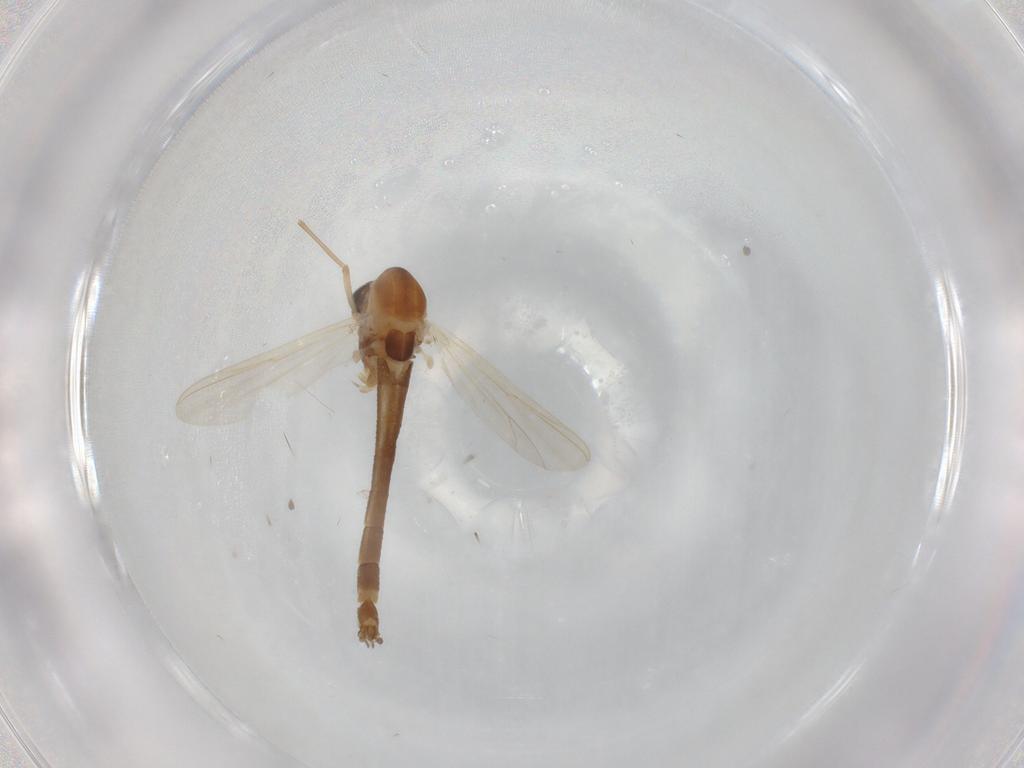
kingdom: Animalia
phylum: Arthropoda
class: Insecta
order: Diptera
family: Chironomidae
